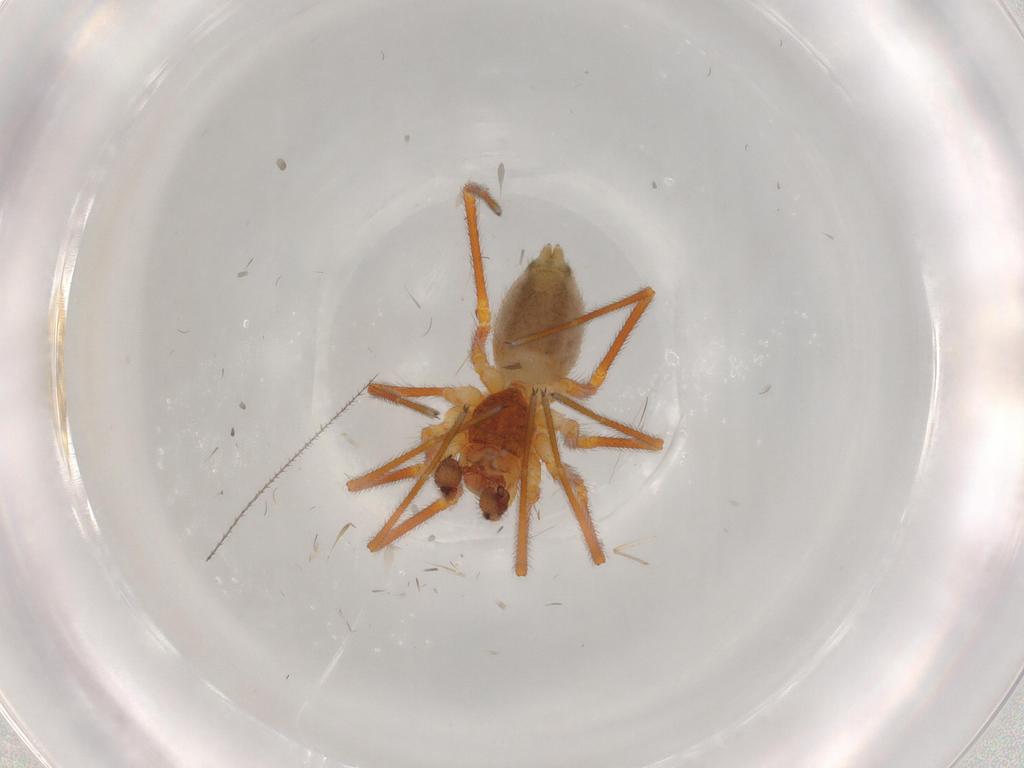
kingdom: Animalia
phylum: Arthropoda
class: Arachnida
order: Araneae
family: Linyphiidae
